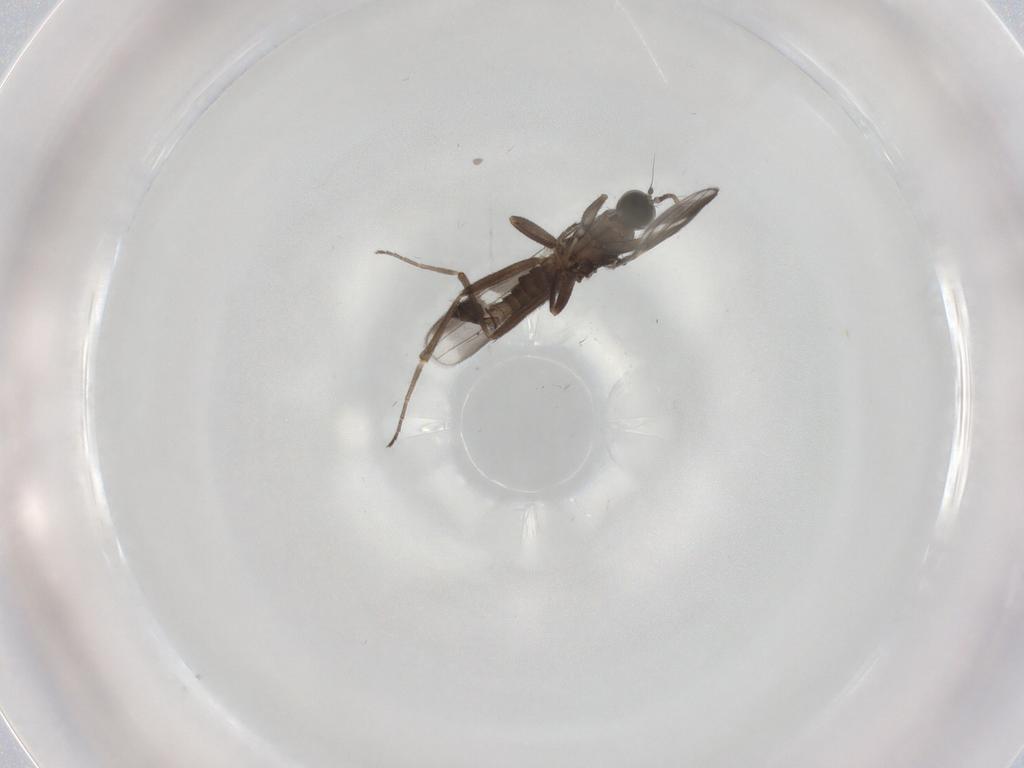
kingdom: Animalia
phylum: Arthropoda
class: Insecta
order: Diptera
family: Hybotidae
